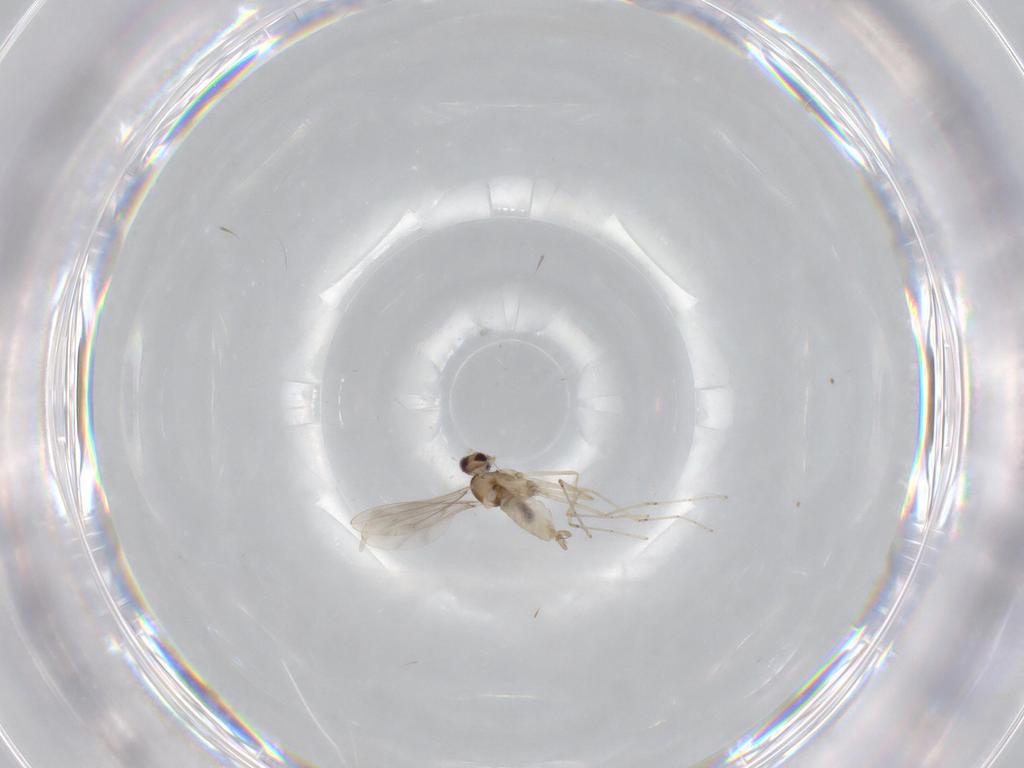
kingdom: Animalia
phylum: Arthropoda
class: Insecta
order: Diptera
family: Cecidomyiidae
